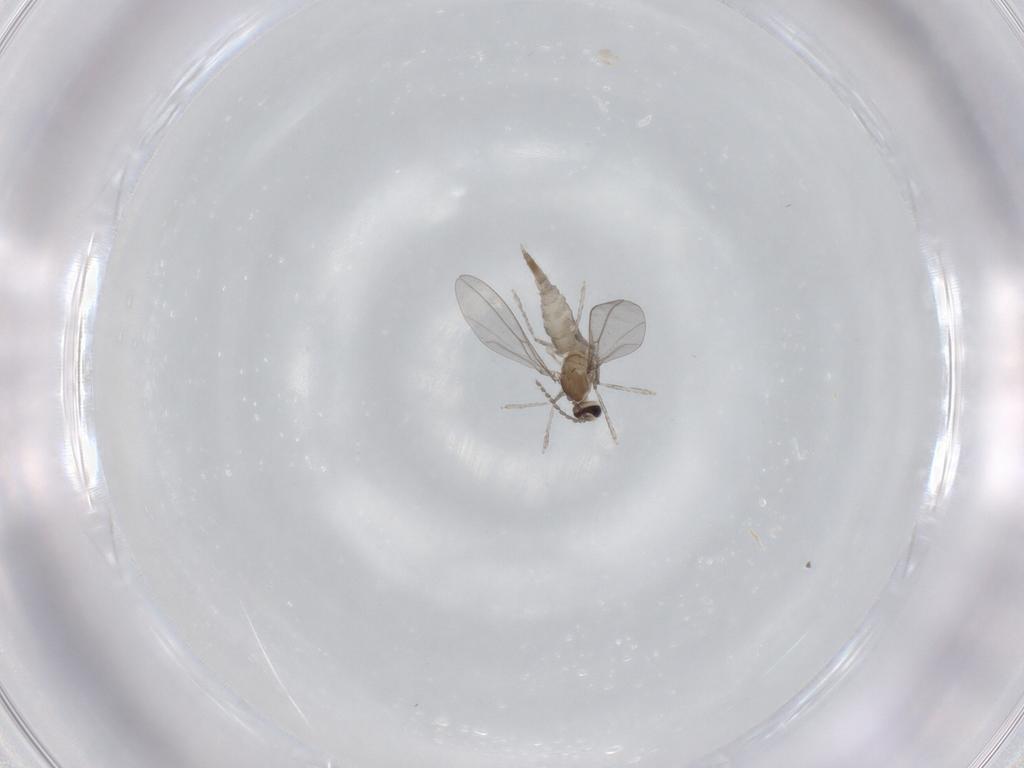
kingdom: Animalia
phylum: Arthropoda
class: Insecta
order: Diptera
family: Cecidomyiidae
